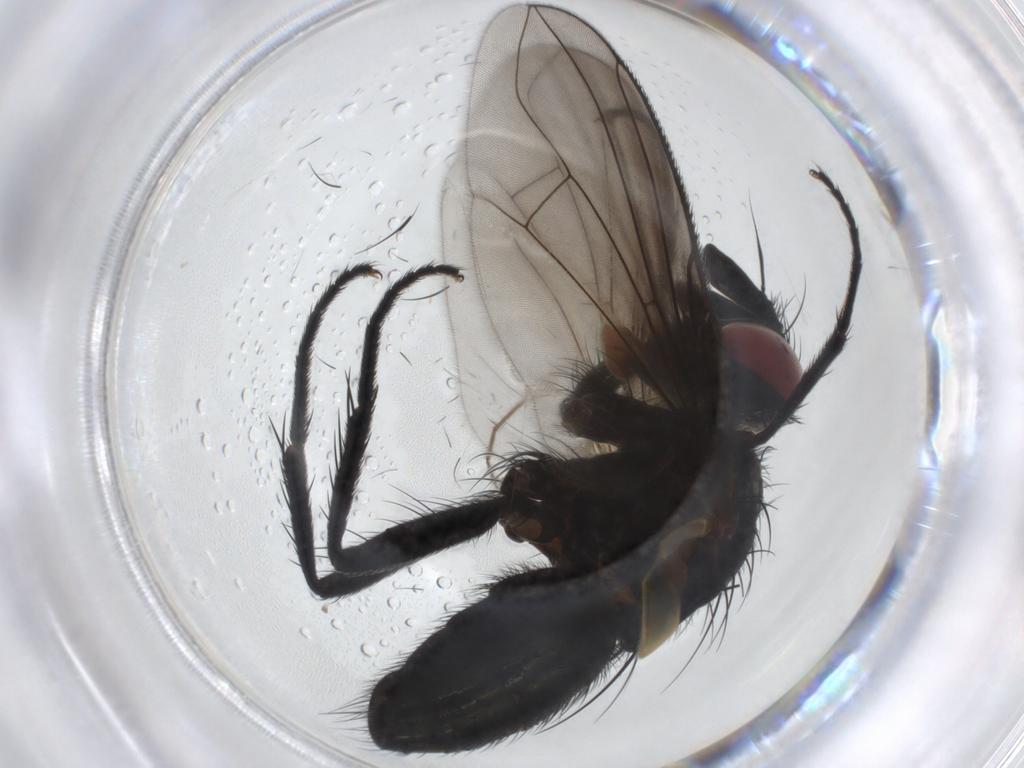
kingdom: Animalia
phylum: Arthropoda
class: Insecta
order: Diptera
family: Tachinidae
